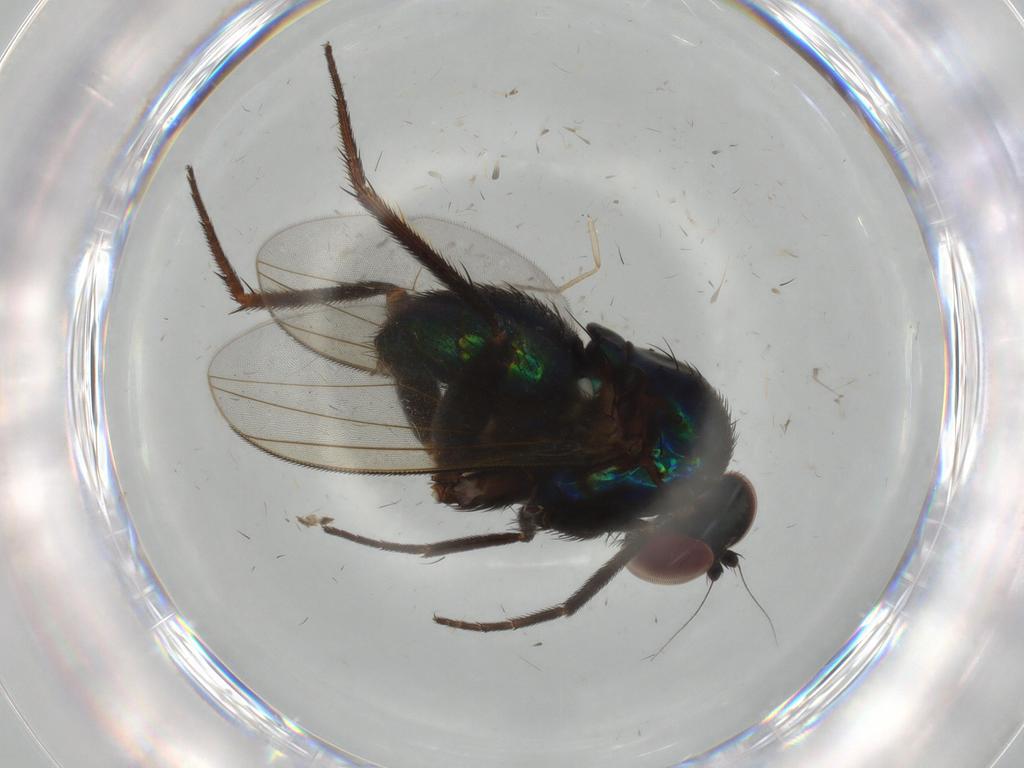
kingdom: Animalia
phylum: Arthropoda
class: Insecta
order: Diptera
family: Dolichopodidae
